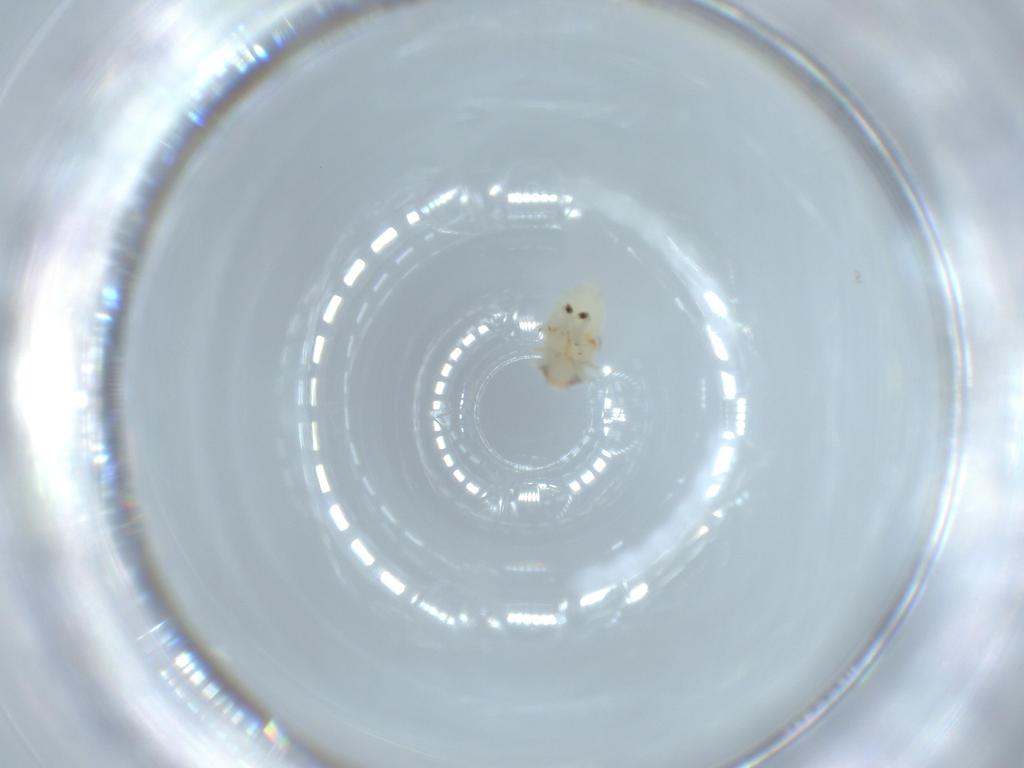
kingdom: Animalia
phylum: Arthropoda
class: Insecta
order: Hemiptera
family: Nogodinidae
